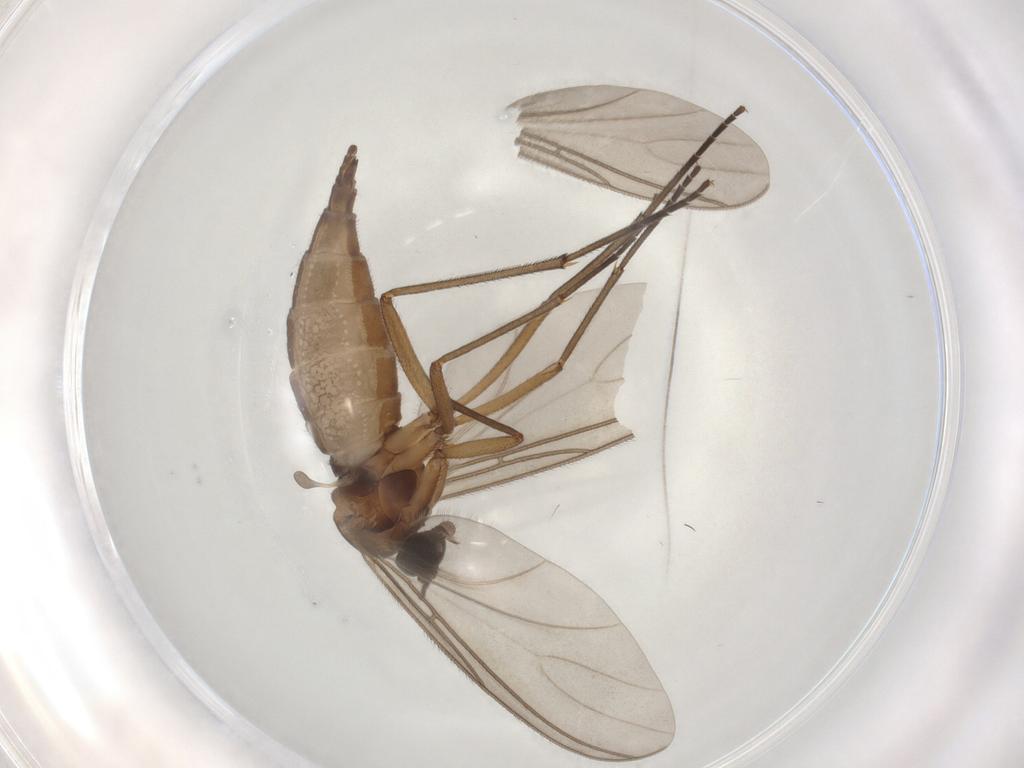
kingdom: Animalia
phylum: Arthropoda
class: Insecta
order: Diptera
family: Sciaridae
